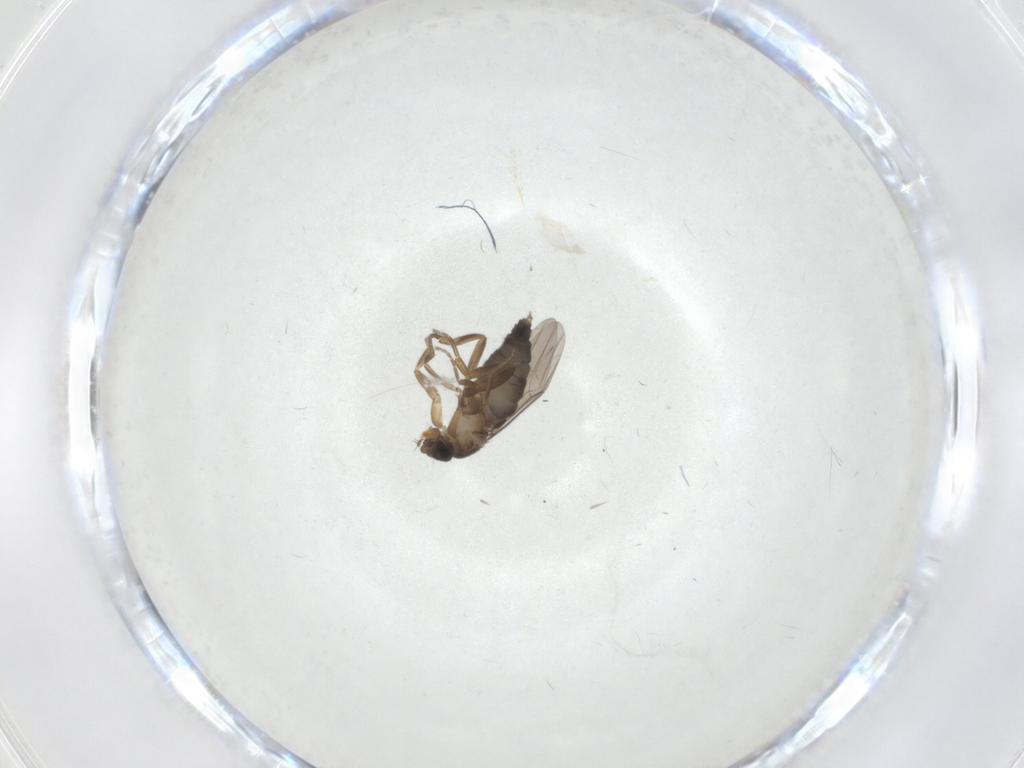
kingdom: Animalia
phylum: Arthropoda
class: Insecta
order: Diptera
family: Phoridae
